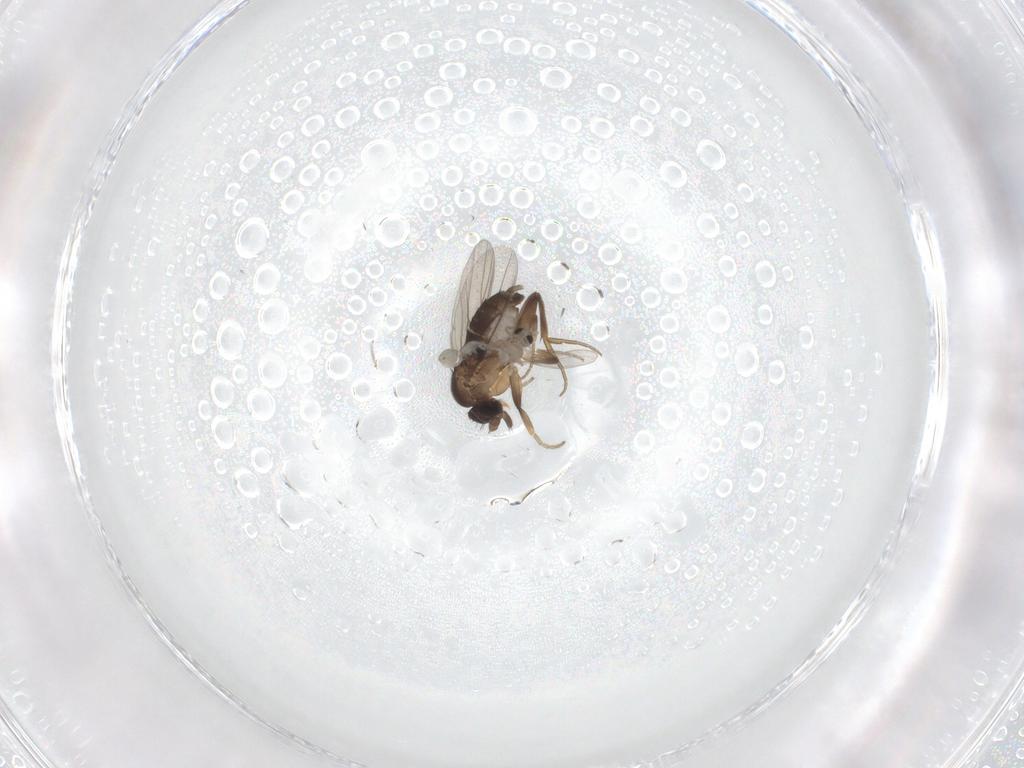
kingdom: Animalia
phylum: Arthropoda
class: Insecta
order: Diptera
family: Cecidomyiidae
